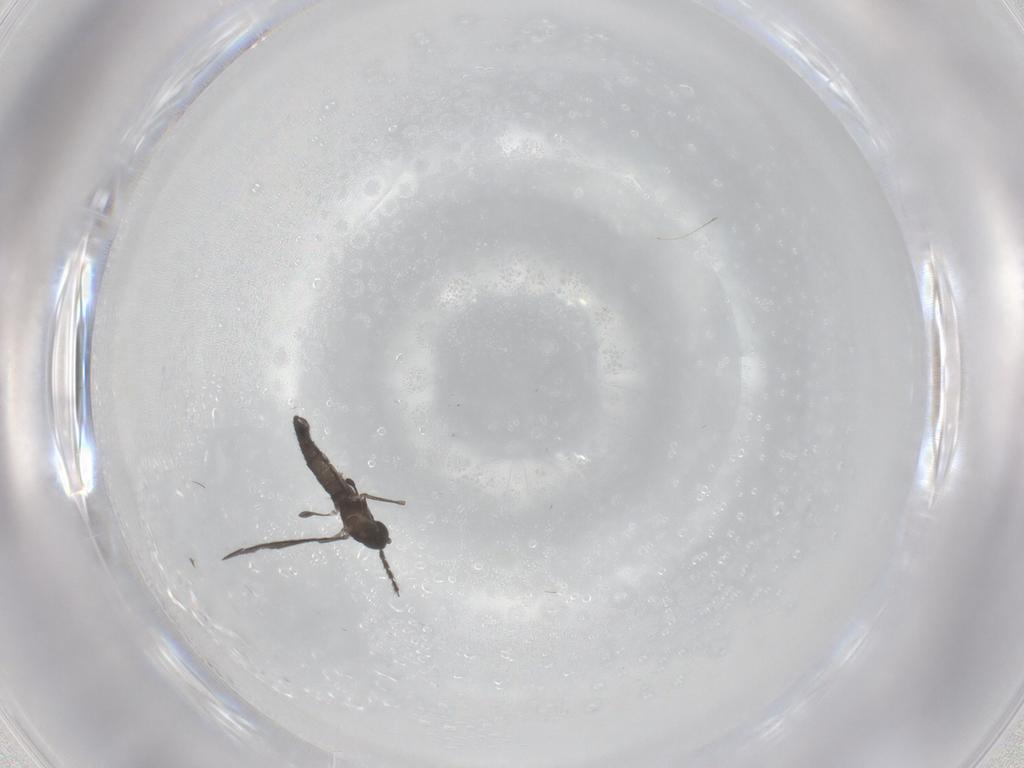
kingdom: Animalia
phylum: Arthropoda
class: Insecta
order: Diptera
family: Sciaridae
